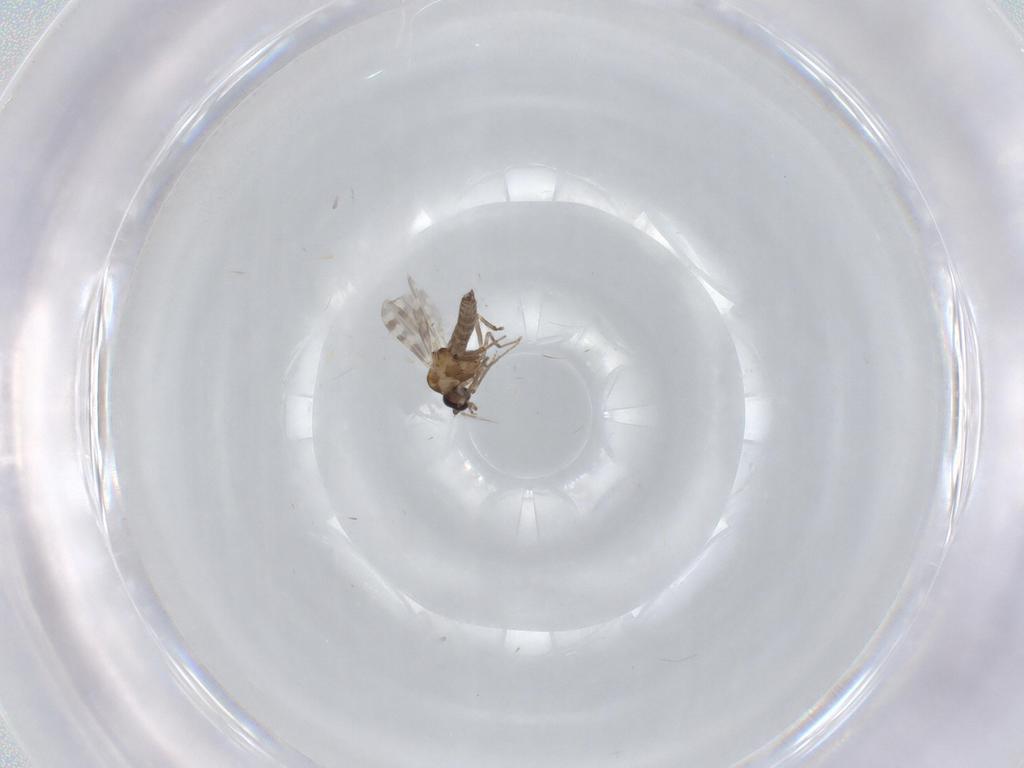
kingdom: Animalia
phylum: Arthropoda
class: Insecta
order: Diptera
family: Ceratopogonidae
